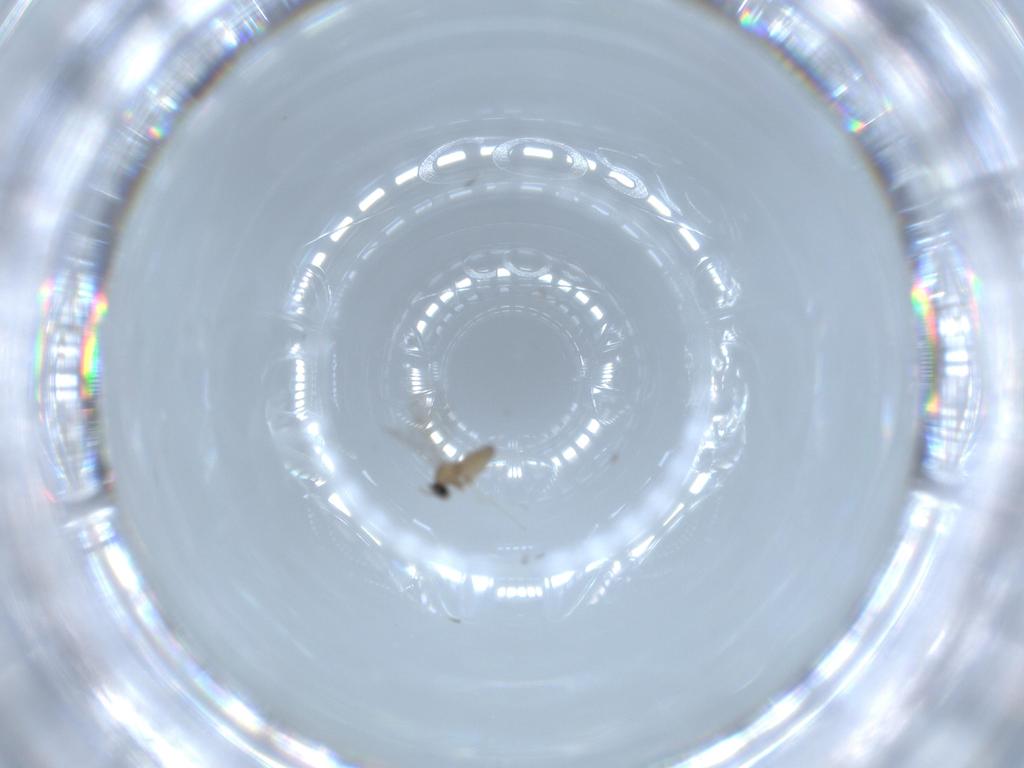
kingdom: Animalia
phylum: Arthropoda
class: Insecta
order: Diptera
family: Cecidomyiidae
